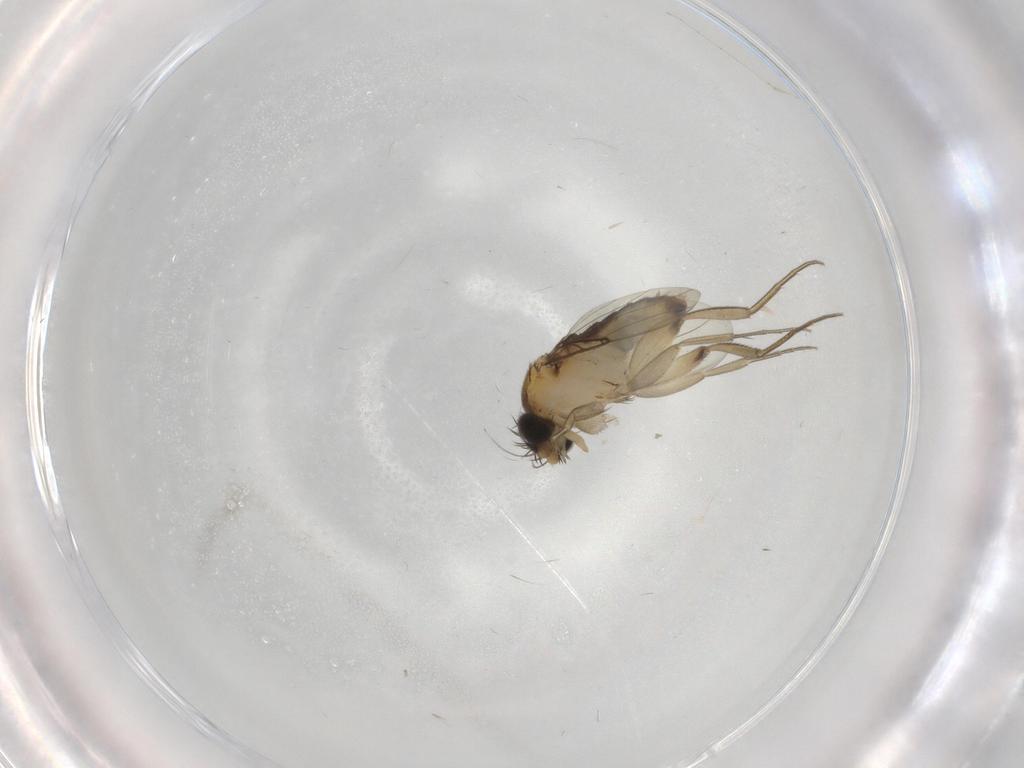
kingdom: Animalia
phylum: Arthropoda
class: Insecta
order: Diptera
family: Phoridae
